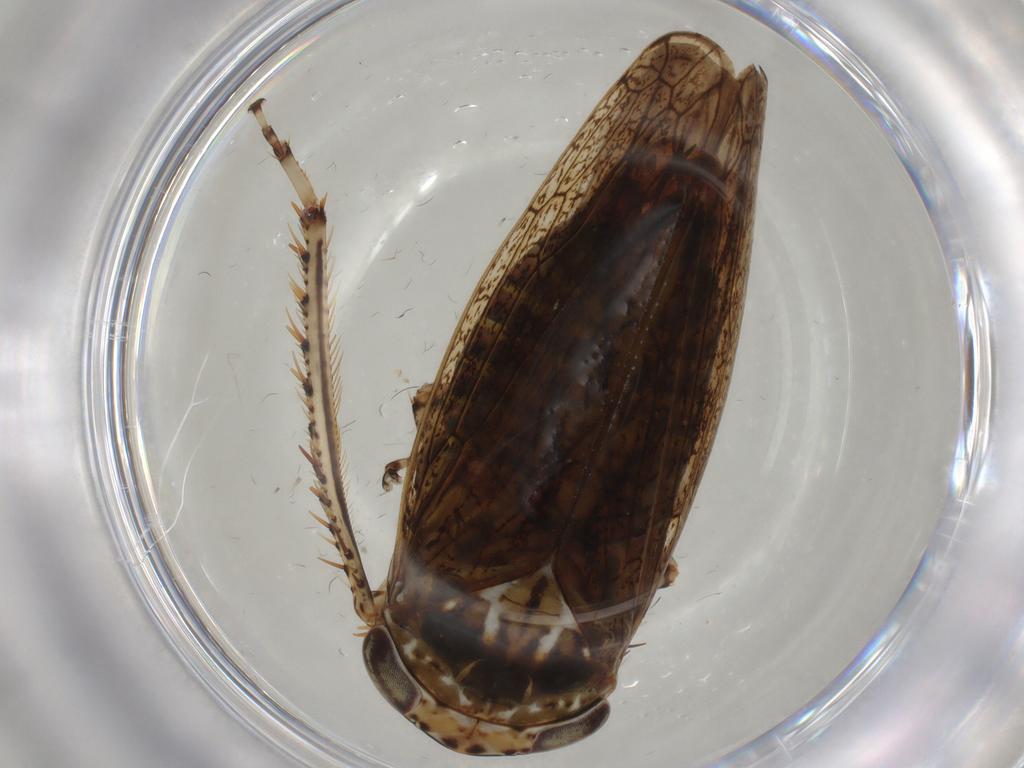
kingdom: Animalia
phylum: Arthropoda
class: Insecta
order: Hemiptera
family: Cicadellidae
